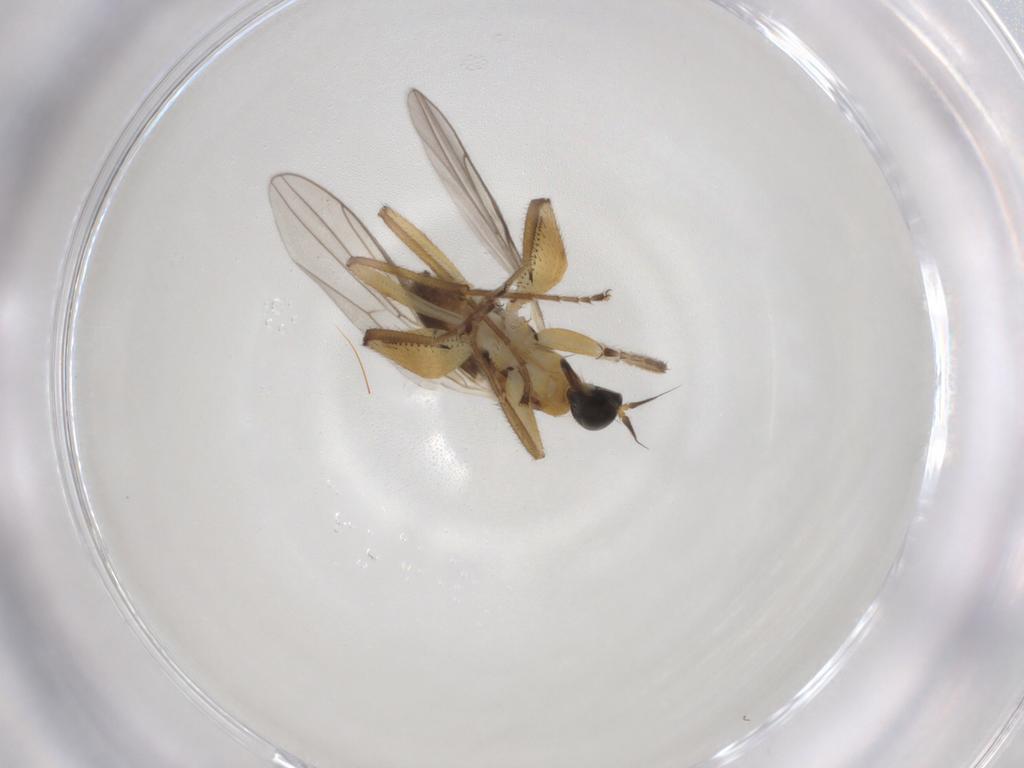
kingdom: Animalia
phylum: Arthropoda
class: Insecta
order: Diptera
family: Hybotidae
